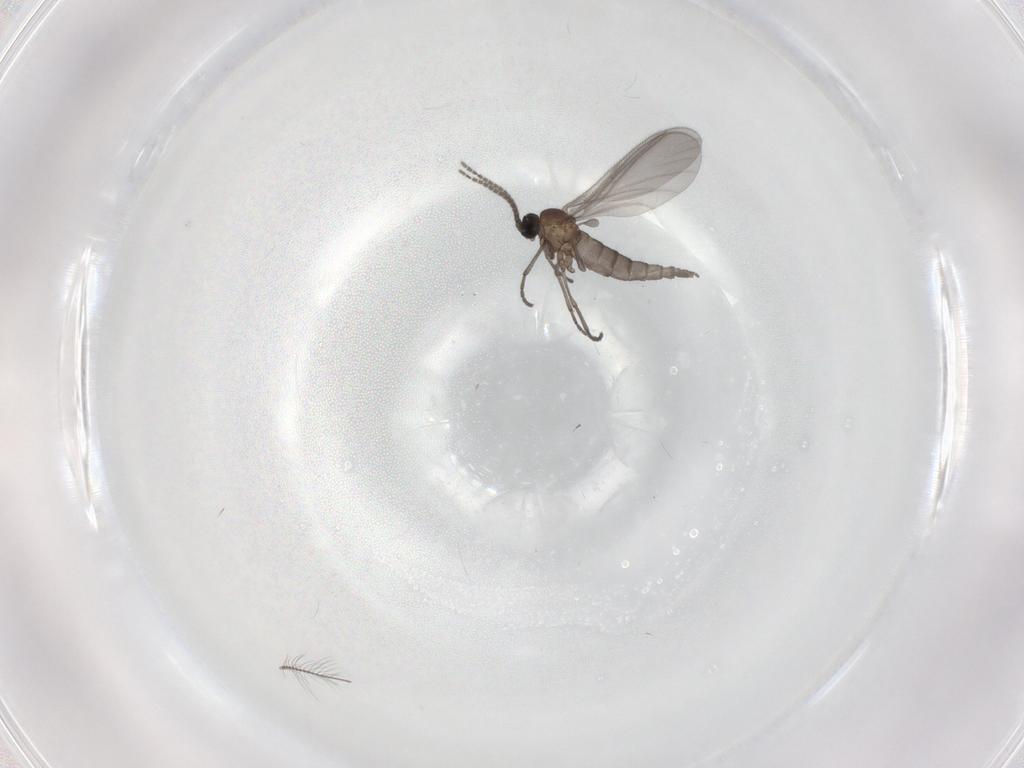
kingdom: Animalia
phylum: Arthropoda
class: Insecta
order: Diptera
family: Sciaridae
